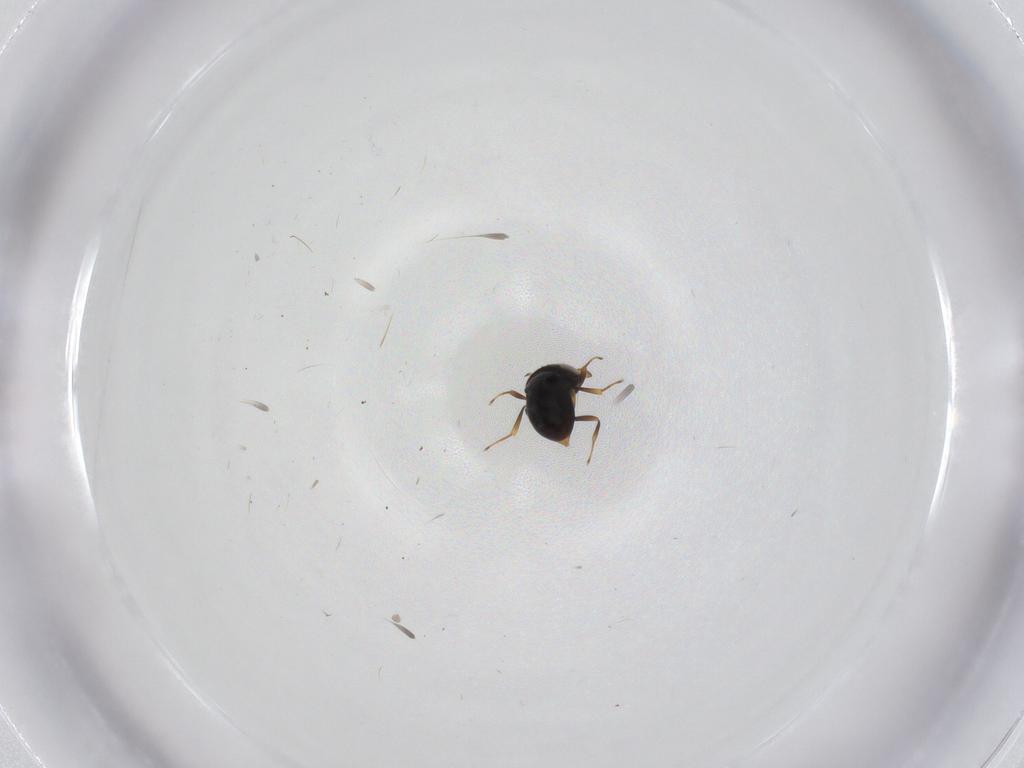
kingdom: Animalia
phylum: Arthropoda
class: Insecta
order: Hymenoptera
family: Scelionidae
